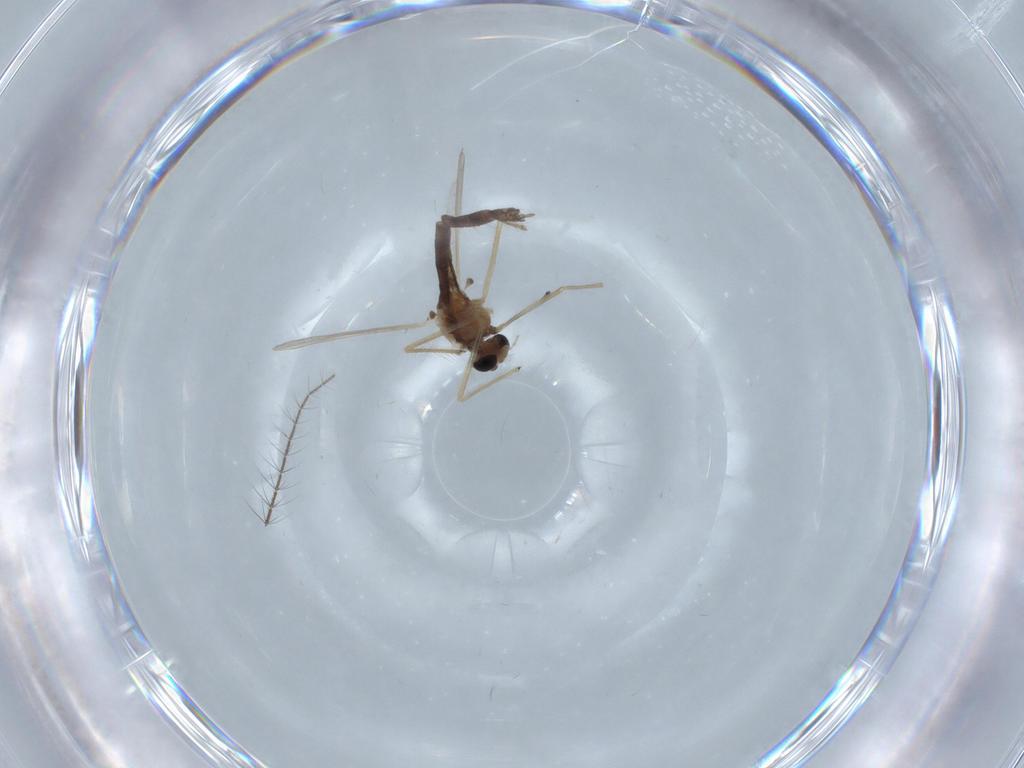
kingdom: Animalia
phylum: Arthropoda
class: Insecta
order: Diptera
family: Chironomidae
